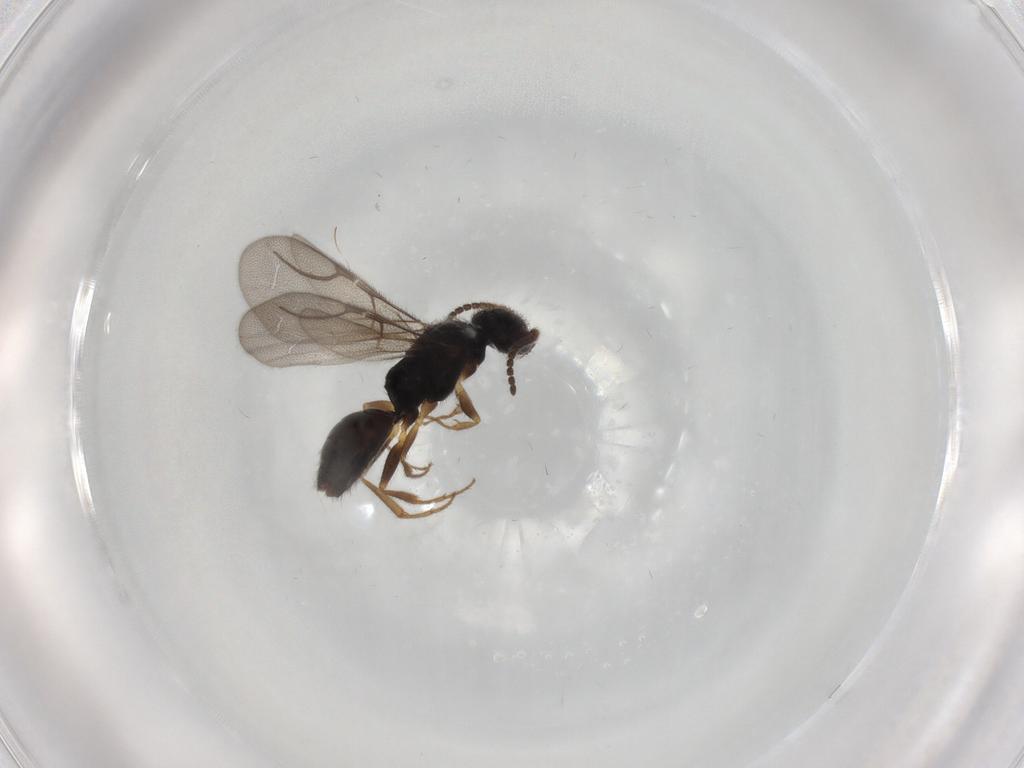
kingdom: Animalia
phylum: Arthropoda
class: Insecta
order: Hymenoptera
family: Bethylidae
